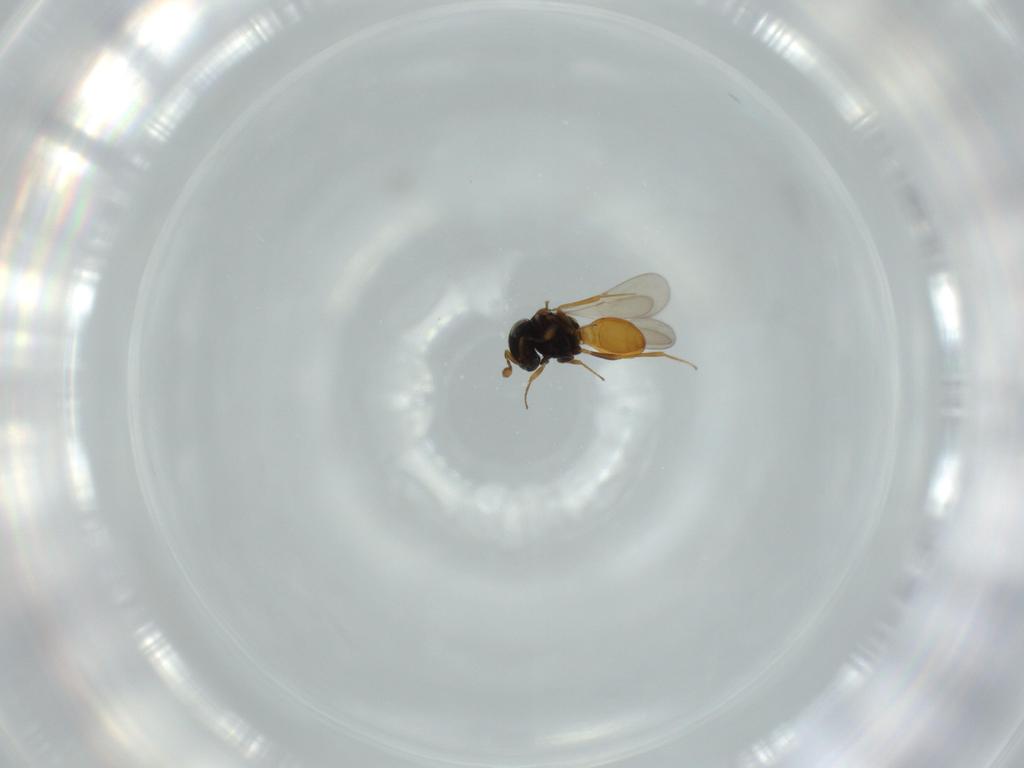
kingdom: Animalia
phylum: Arthropoda
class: Insecta
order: Hymenoptera
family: Scelionidae
